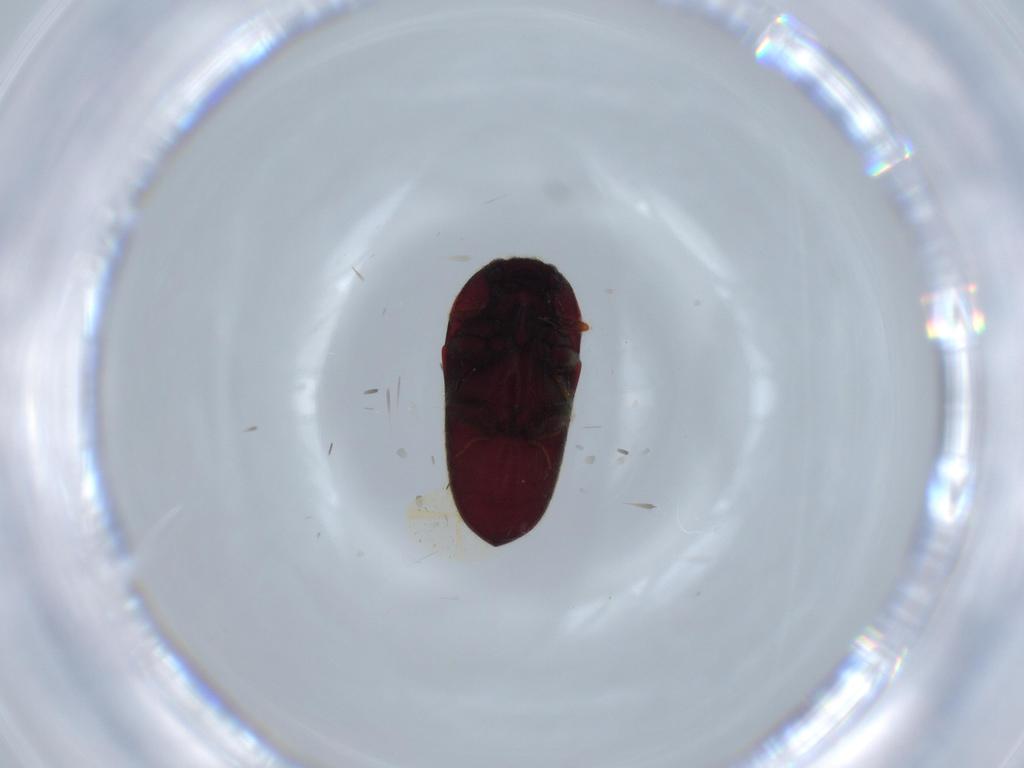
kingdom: Animalia
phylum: Arthropoda
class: Insecta
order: Coleoptera
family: Throscidae
